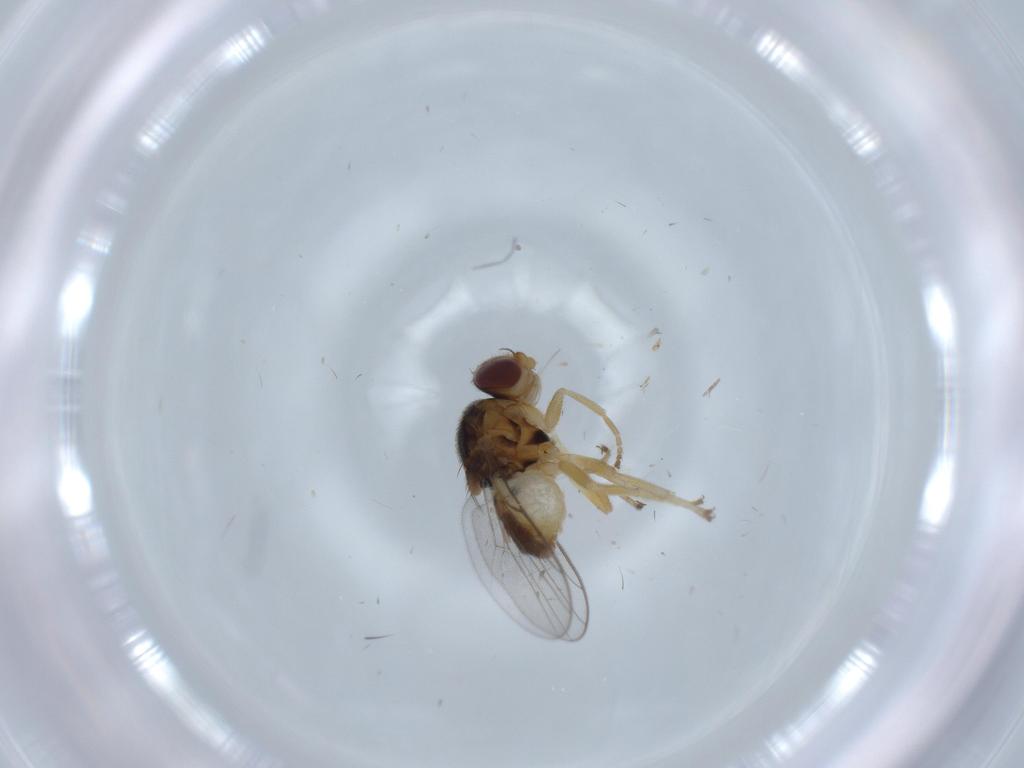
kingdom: Animalia
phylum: Arthropoda
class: Insecta
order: Diptera
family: Chloropidae
